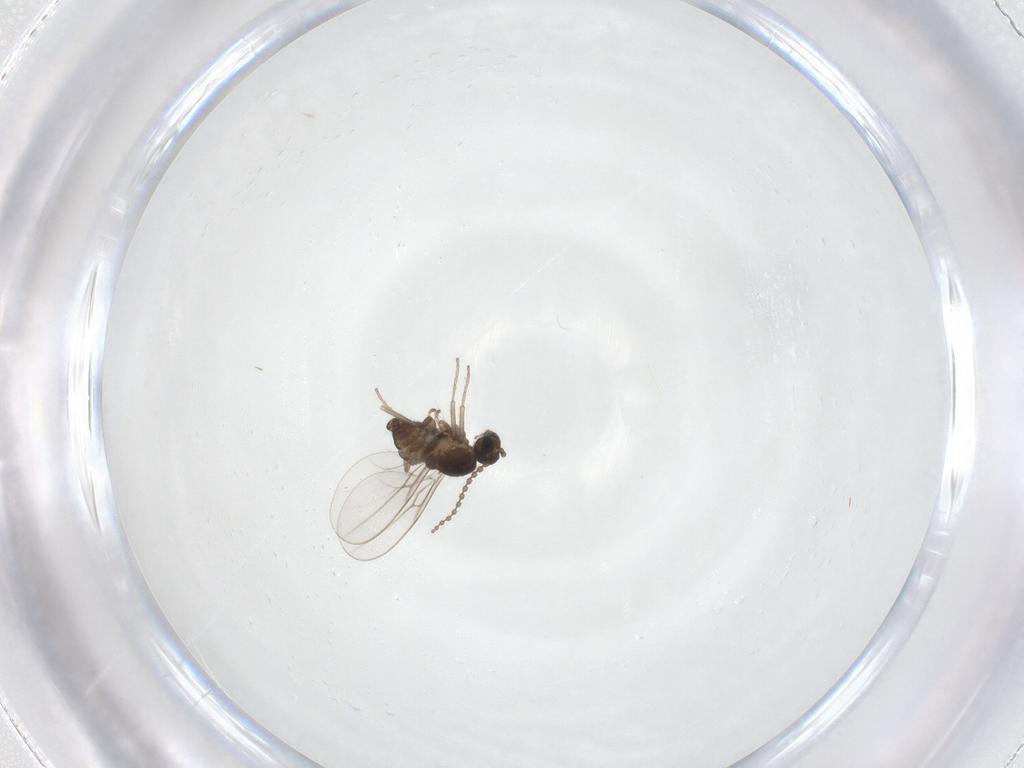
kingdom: Animalia
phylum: Arthropoda
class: Insecta
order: Diptera
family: Cecidomyiidae
